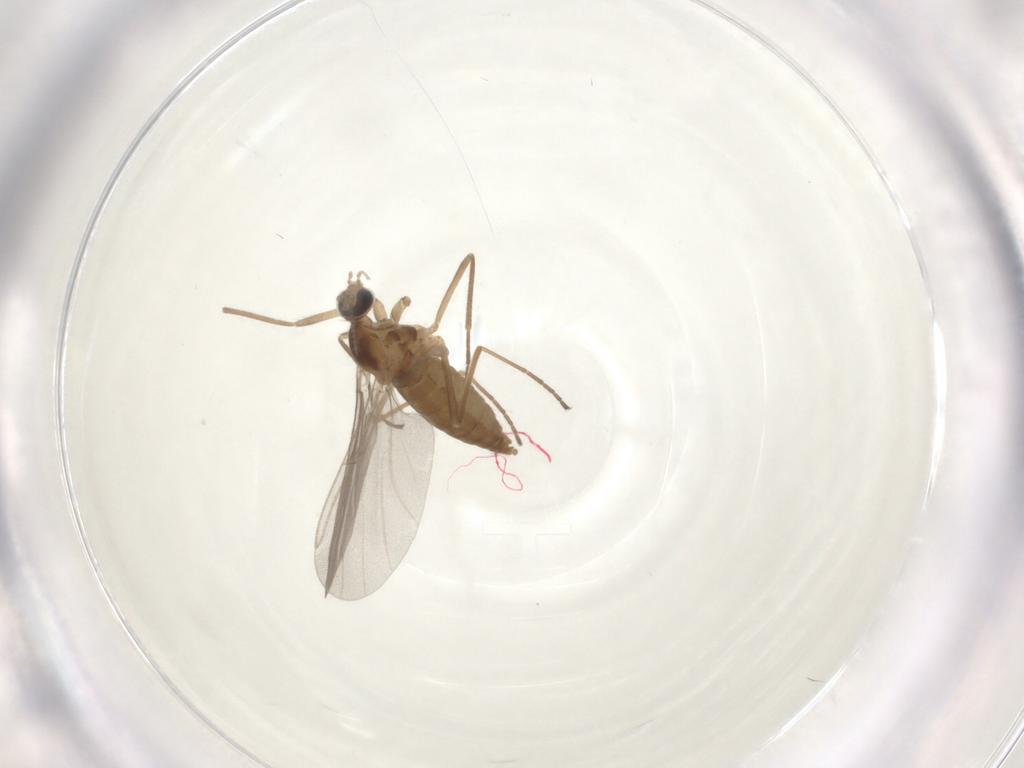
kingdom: Animalia
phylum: Arthropoda
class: Insecta
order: Diptera
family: Cecidomyiidae
